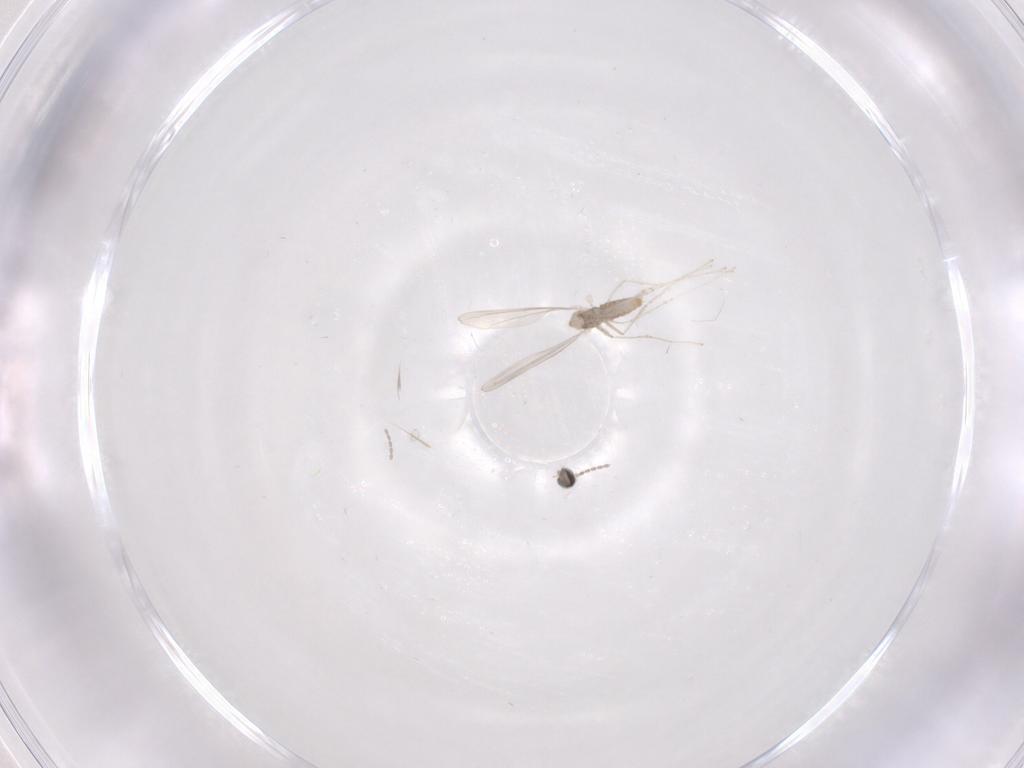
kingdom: Animalia
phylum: Arthropoda
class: Insecta
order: Diptera
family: Cecidomyiidae
